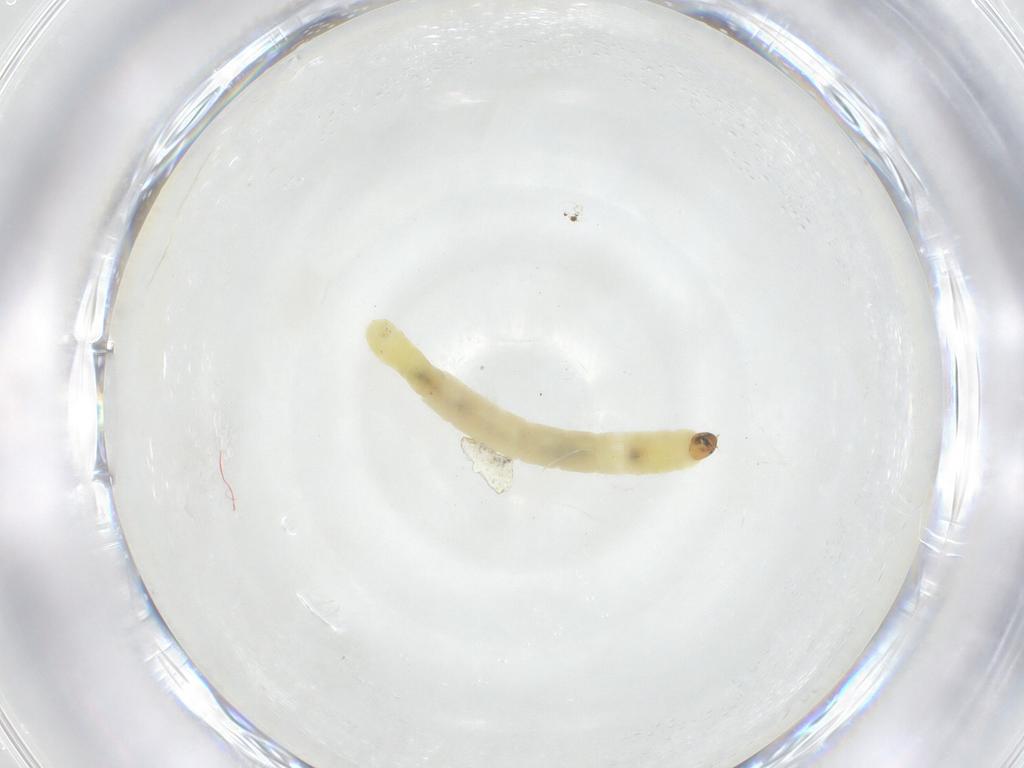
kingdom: Animalia
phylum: Arthropoda
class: Insecta
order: Diptera
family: Chironomidae
